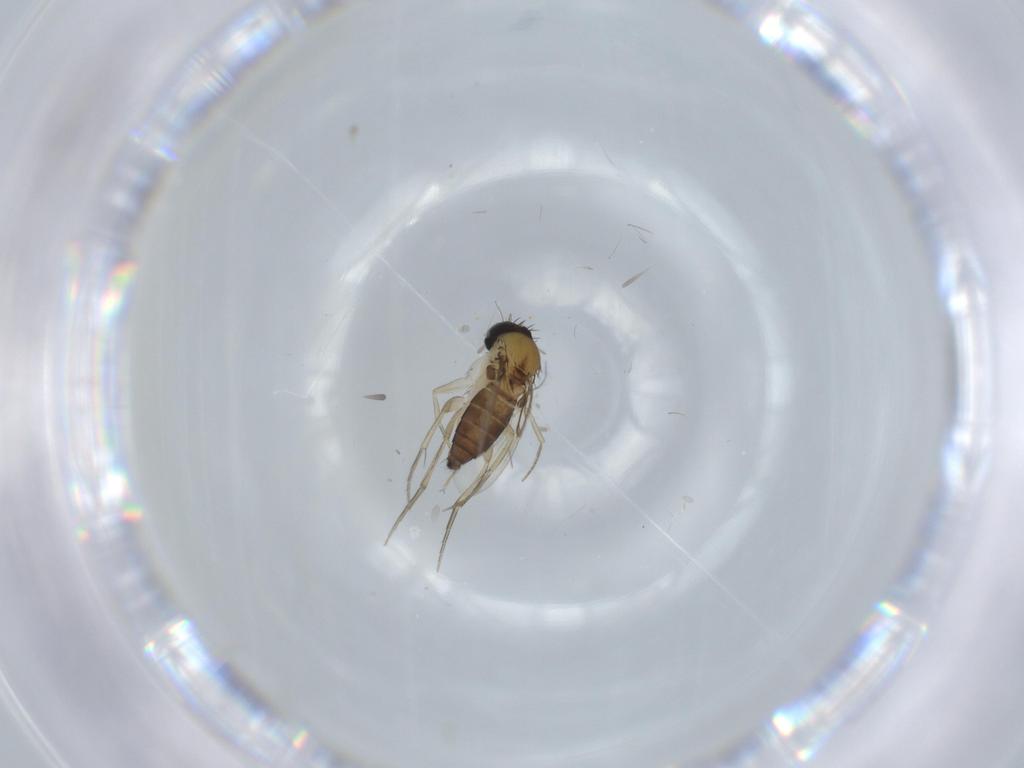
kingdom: Animalia
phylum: Arthropoda
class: Insecta
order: Diptera
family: Phoridae
